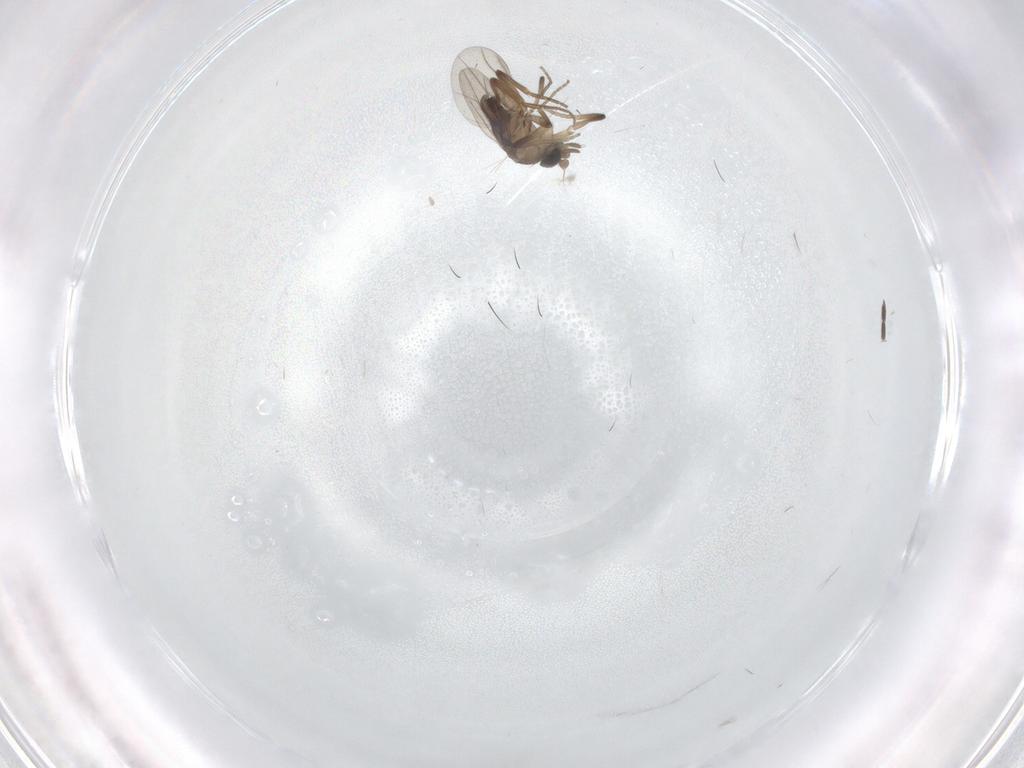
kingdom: Animalia
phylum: Arthropoda
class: Insecta
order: Diptera
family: Phoridae
